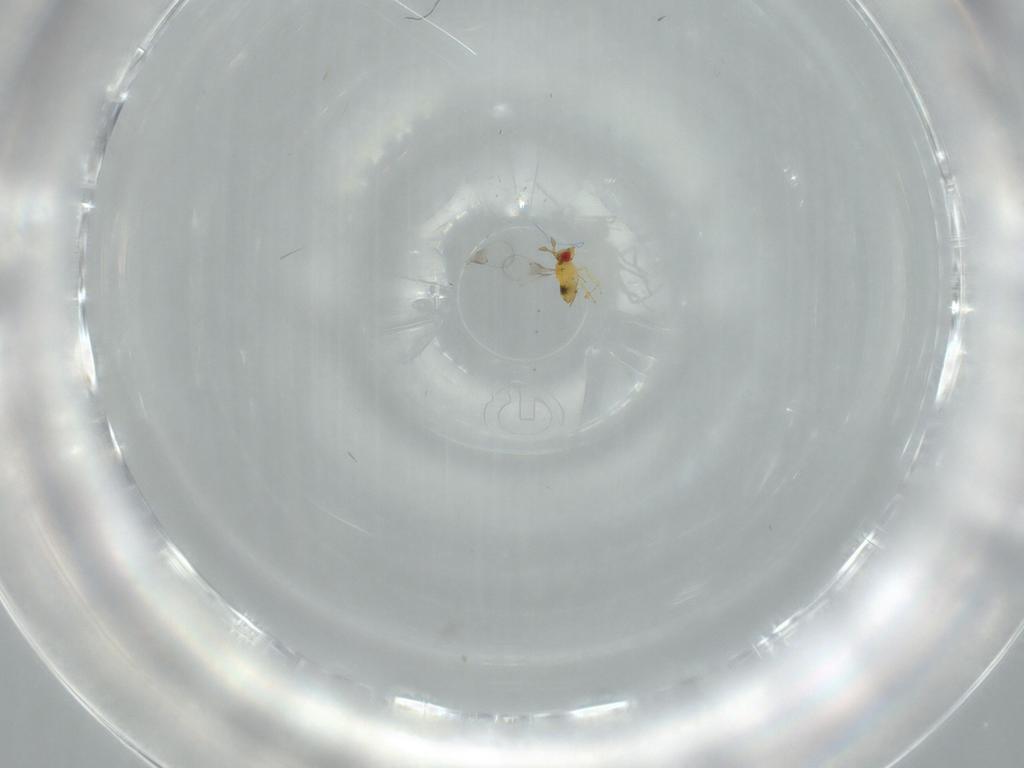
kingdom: Animalia
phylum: Arthropoda
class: Insecta
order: Hymenoptera
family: Trichogrammatidae
